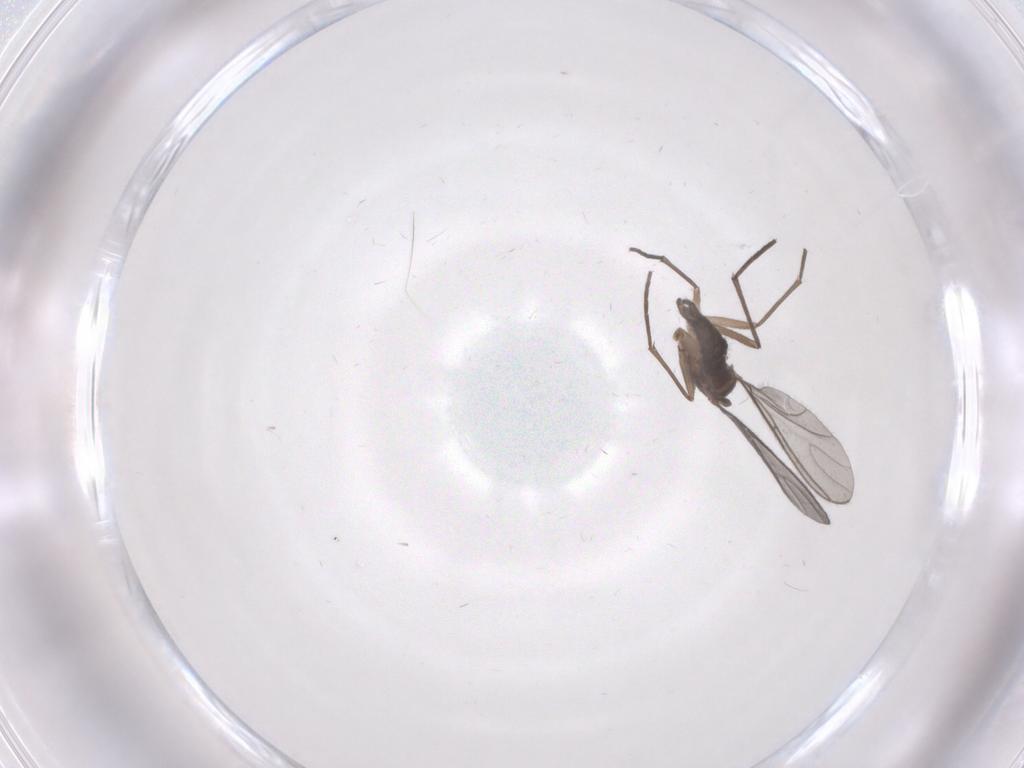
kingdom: Animalia
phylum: Arthropoda
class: Insecta
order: Diptera
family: Sciaridae
